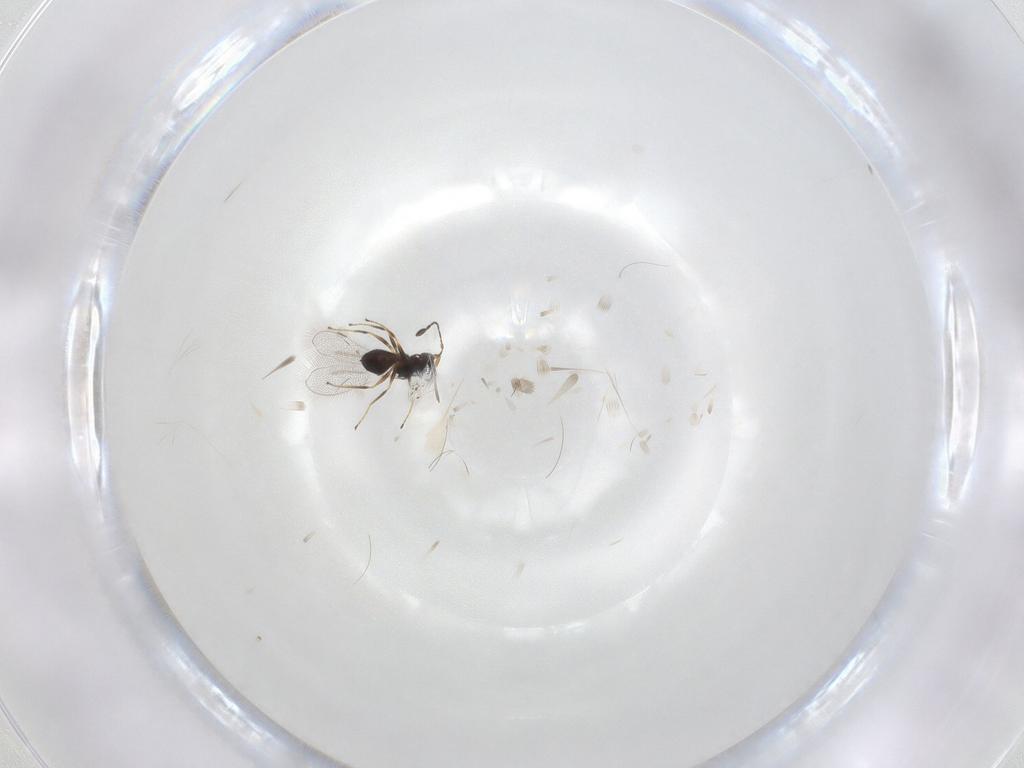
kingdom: Animalia
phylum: Arthropoda
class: Insecta
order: Hymenoptera
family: Mymaridae
